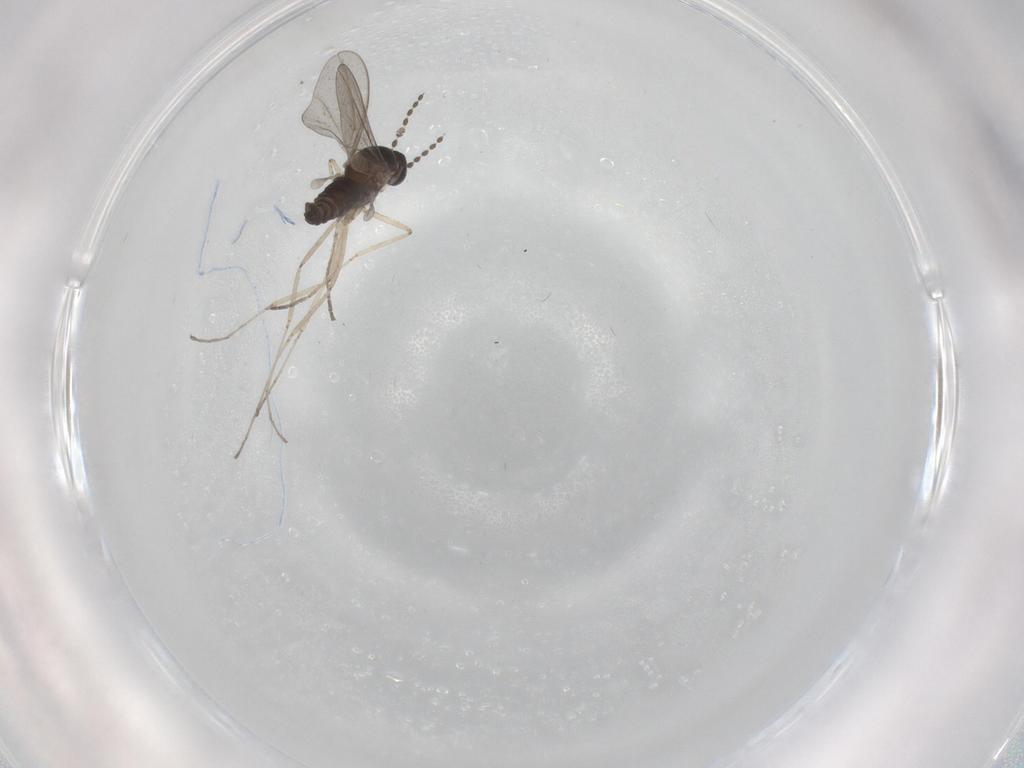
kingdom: Animalia
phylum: Arthropoda
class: Insecta
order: Diptera
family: Cecidomyiidae
